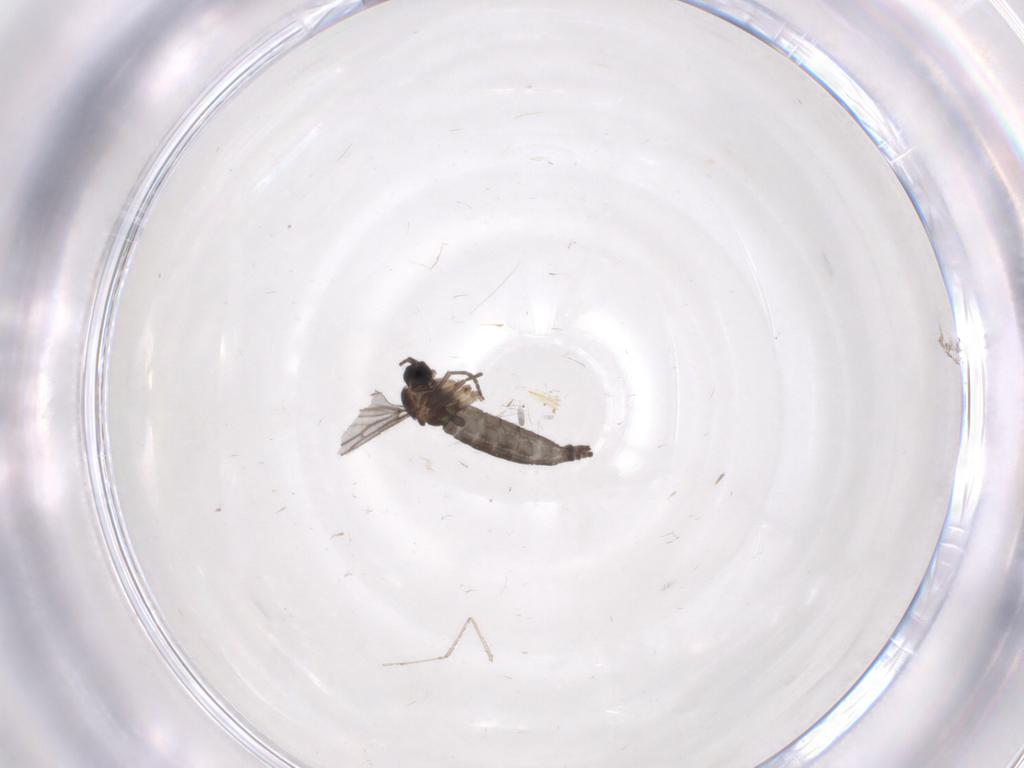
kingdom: Animalia
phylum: Arthropoda
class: Insecta
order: Diptera
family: Sciaridae
